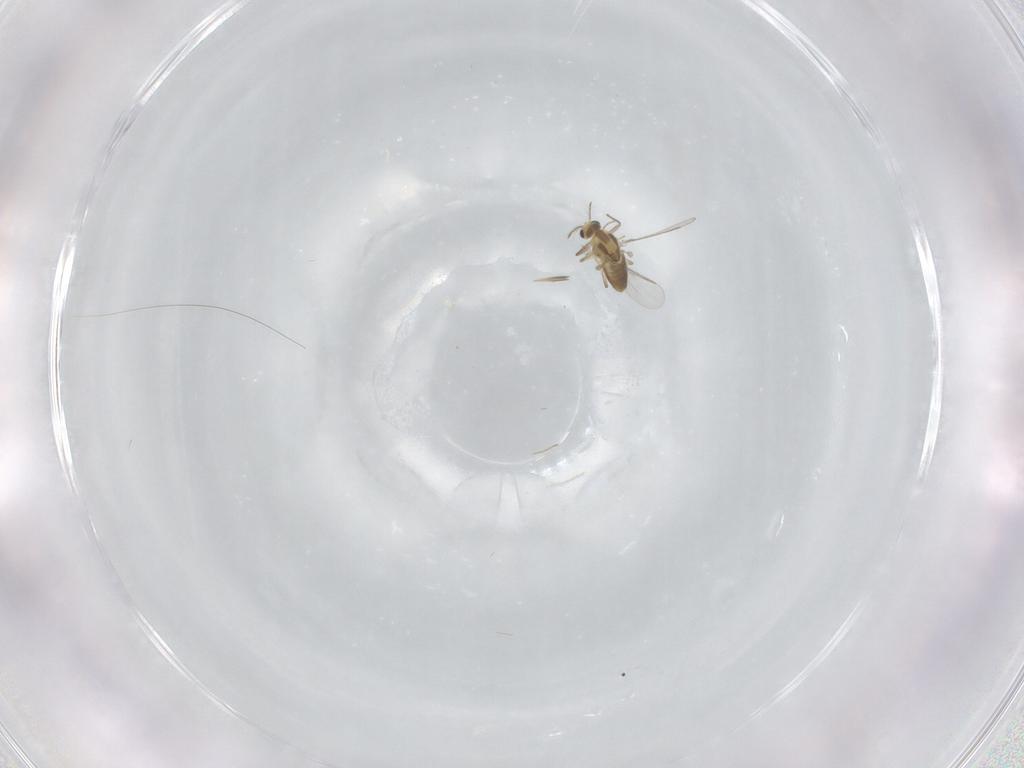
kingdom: Animalia
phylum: Arthropoda
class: Insecta
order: Diptera
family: Chironomidae
